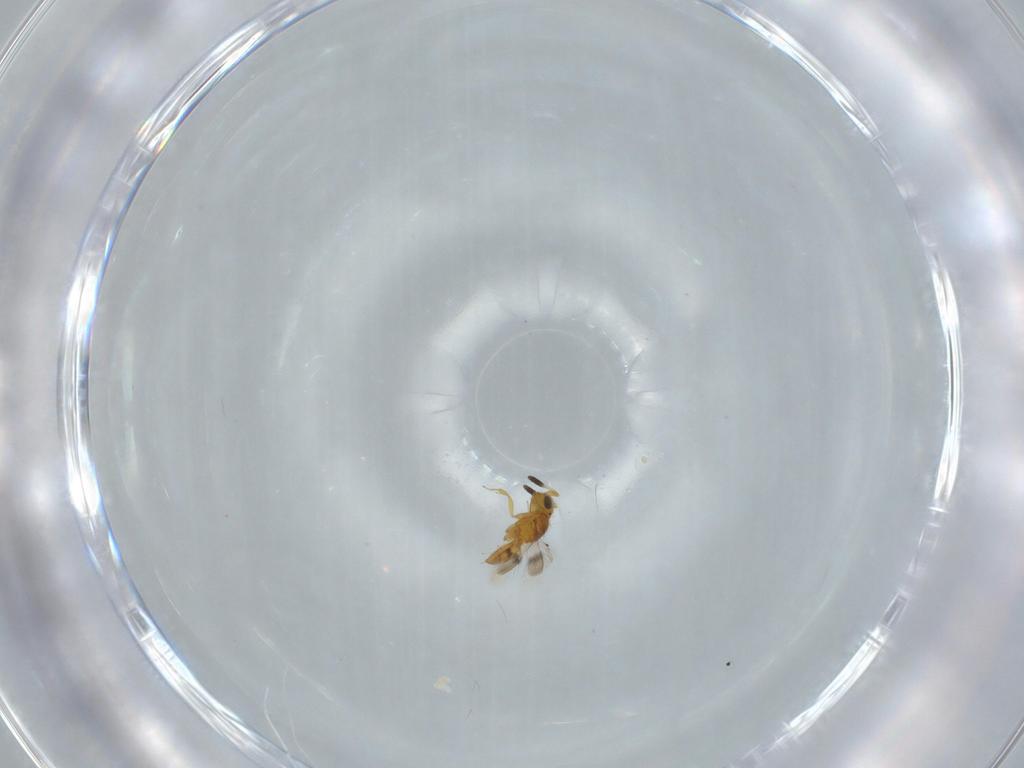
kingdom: Animalia
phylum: Arthropoda
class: Insecta
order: Hymenoptera
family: Scelionidae
